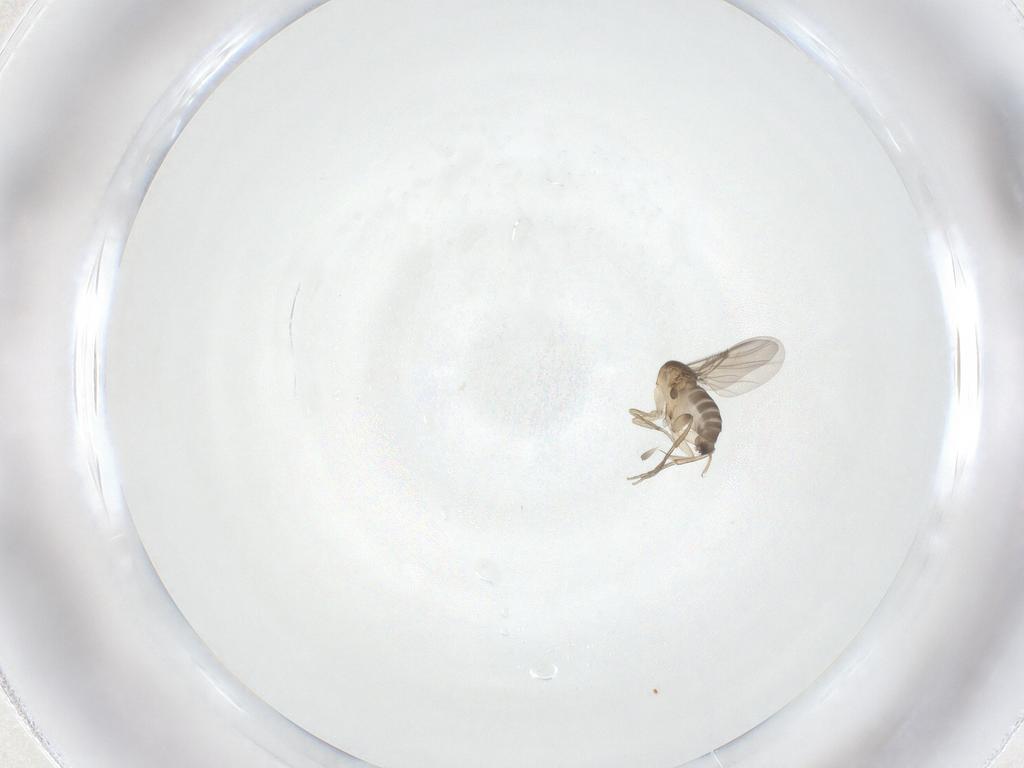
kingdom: Animalia
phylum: Arthropoda
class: Insecta
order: Diptera
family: Phoridae
